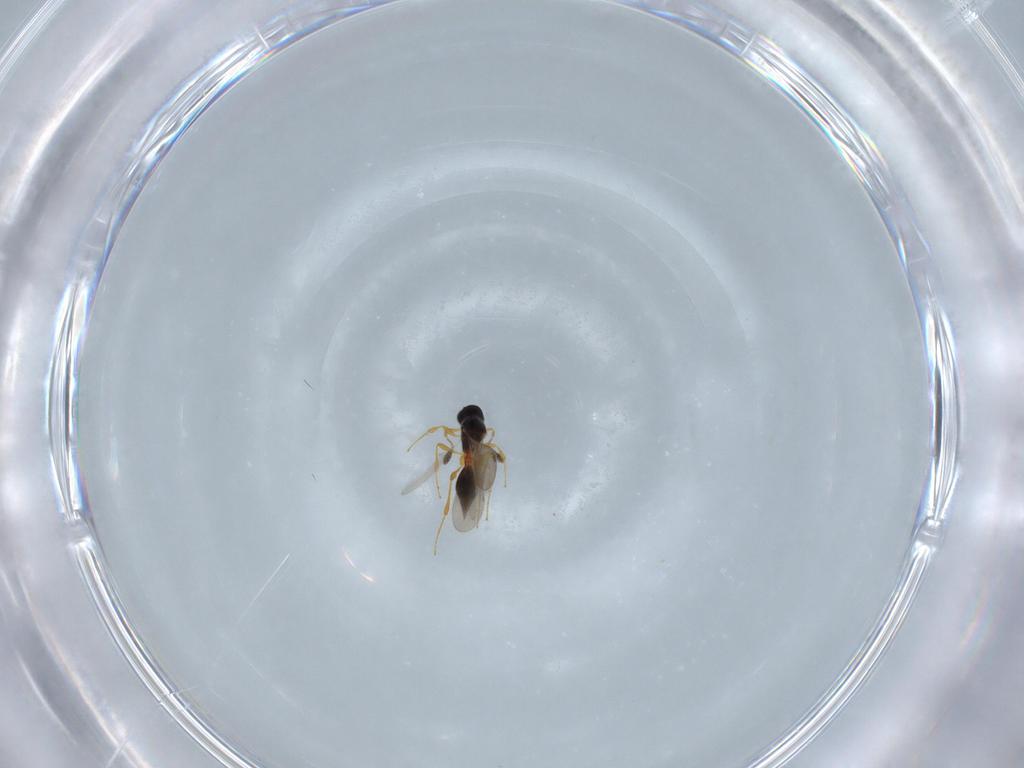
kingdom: Animalia
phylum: Arthropoda
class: Insecta
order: Hymenoptera
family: Platygastridae
